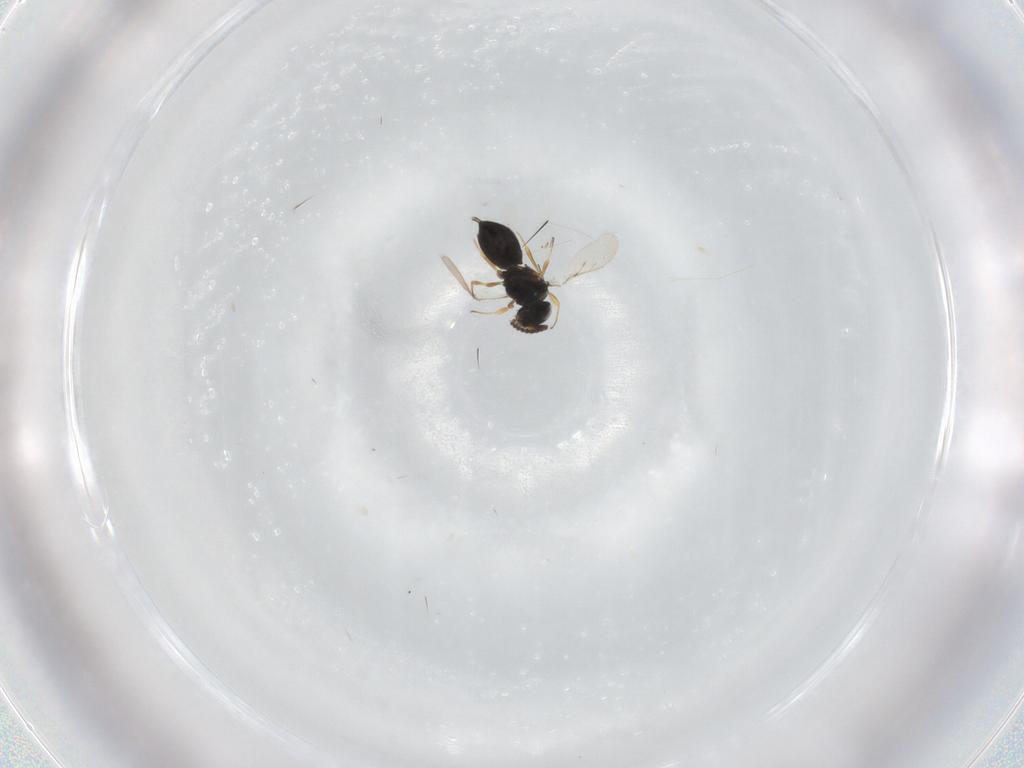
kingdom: Animalia
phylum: Arthropoda
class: Insecta
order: Hymenoptera
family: Scelionidae
